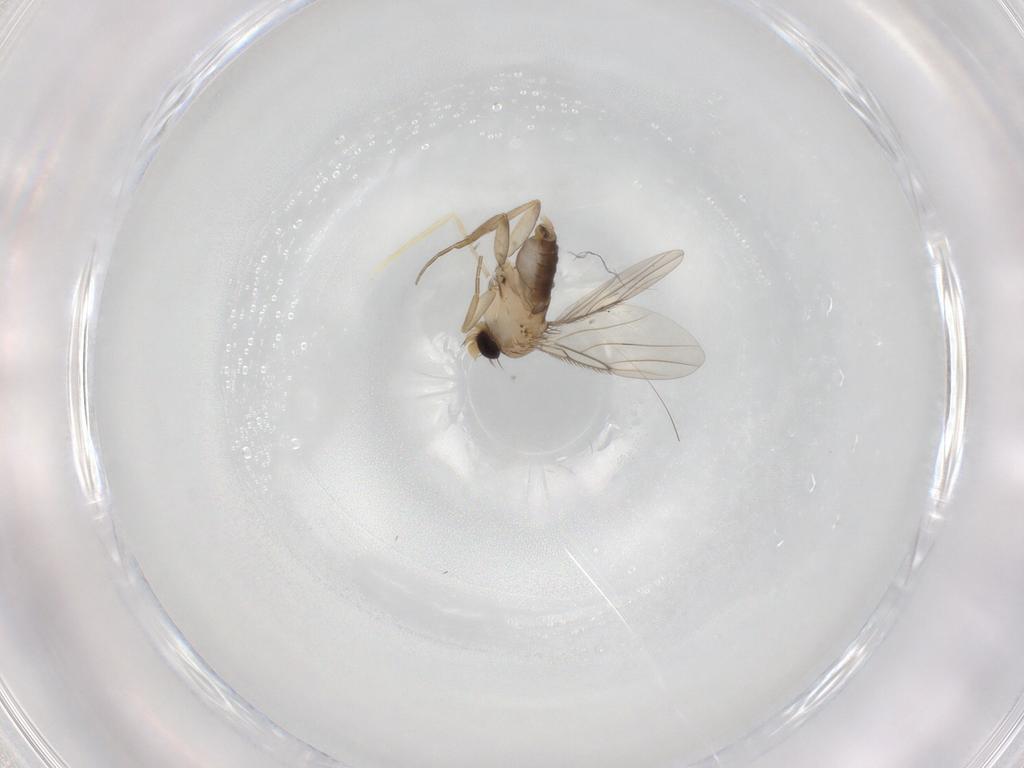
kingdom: Animalia
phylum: Arthropoda
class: Insecta
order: Diptera
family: Phoridae
